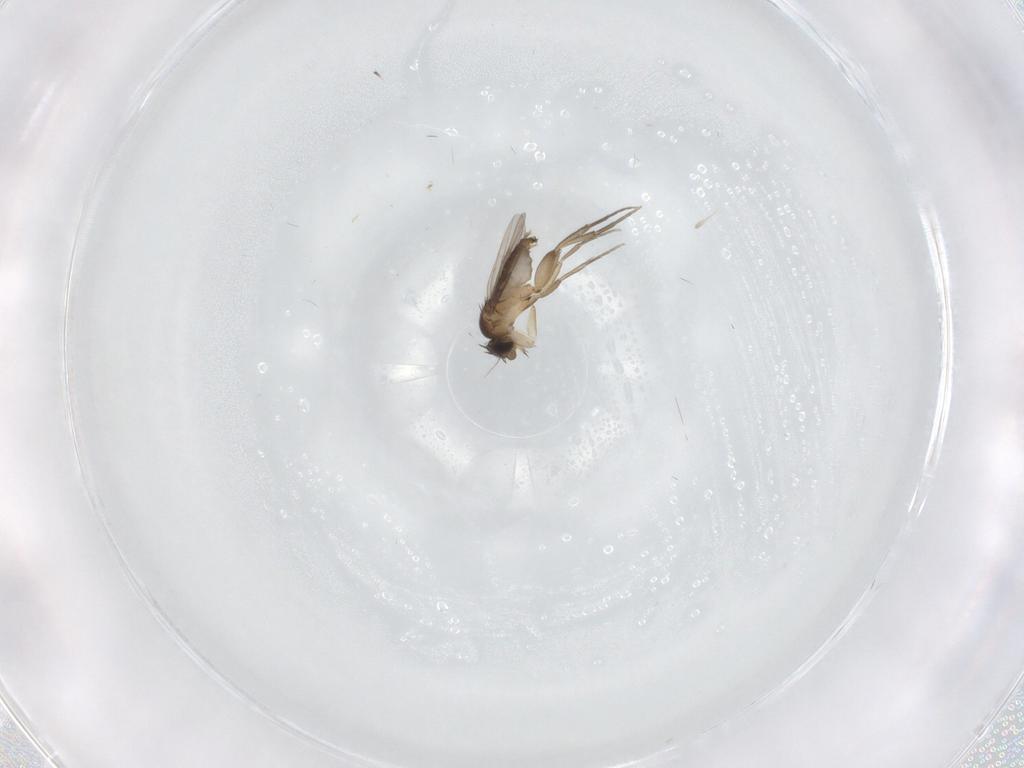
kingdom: Animalia
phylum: Arthropoda
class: Insecta
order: Diptera
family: Phoridae
